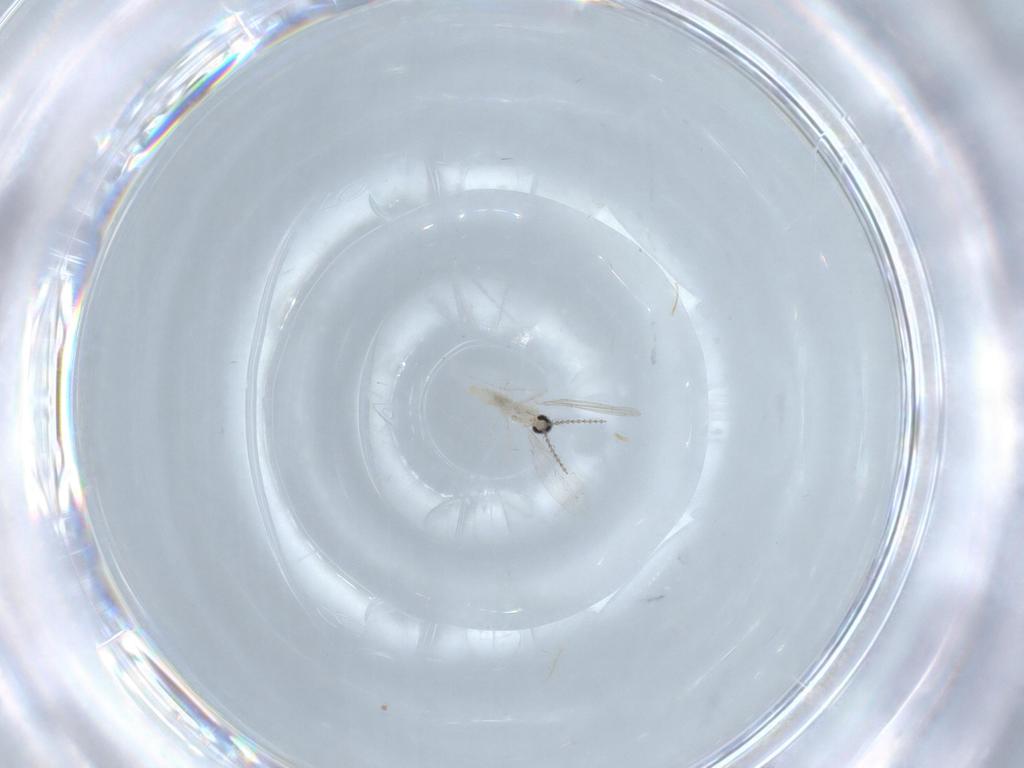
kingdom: Animalia
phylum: Arthropoda
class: Insecta
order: Diptera
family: Cecidomyiidae
